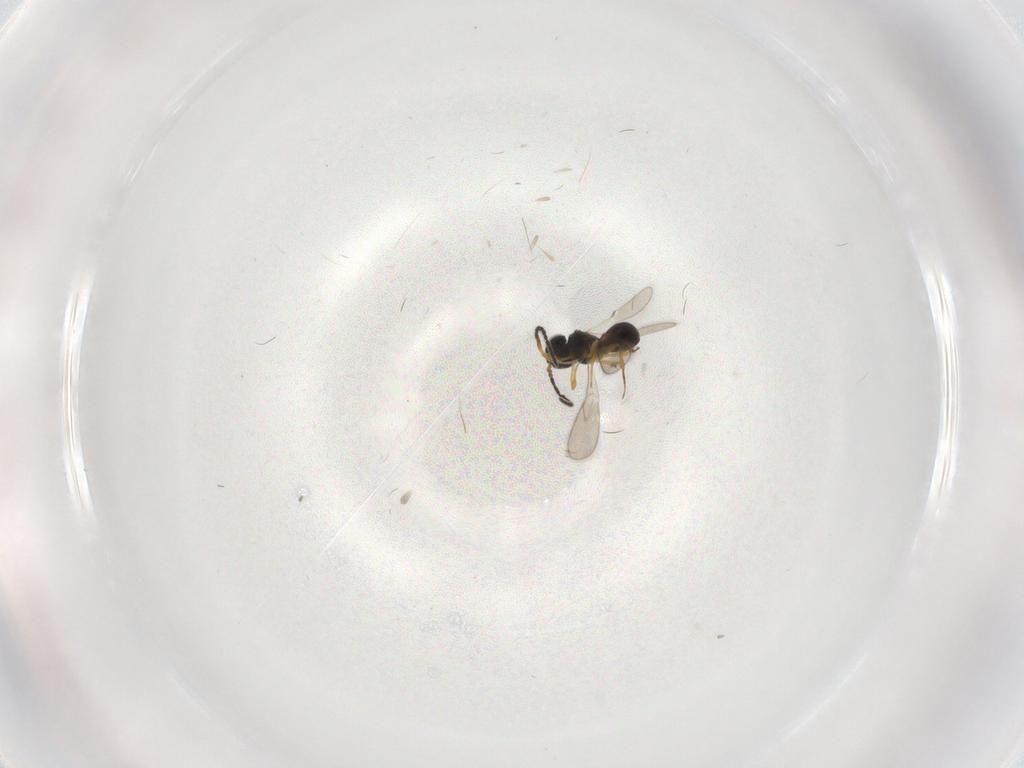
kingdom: Animalia
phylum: Arthropoda
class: Insecta
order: Hymenoptera
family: Scelionidae
